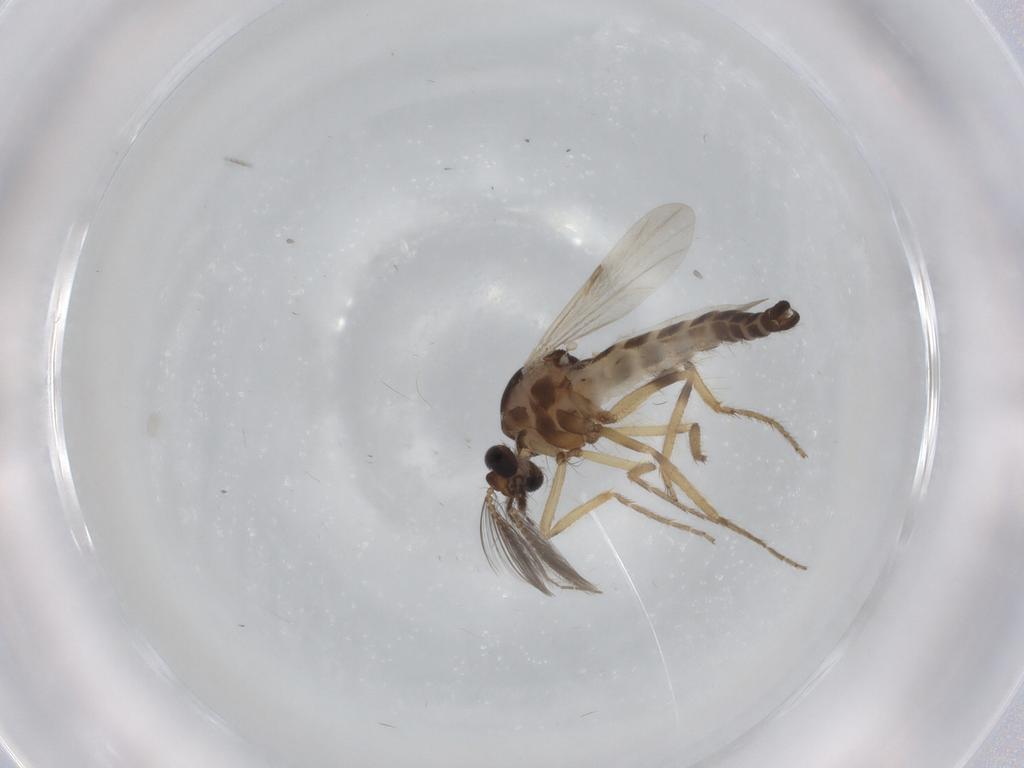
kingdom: Animalia
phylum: Arthropoda
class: Insecta
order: Diptera
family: Ceratopogonidae
